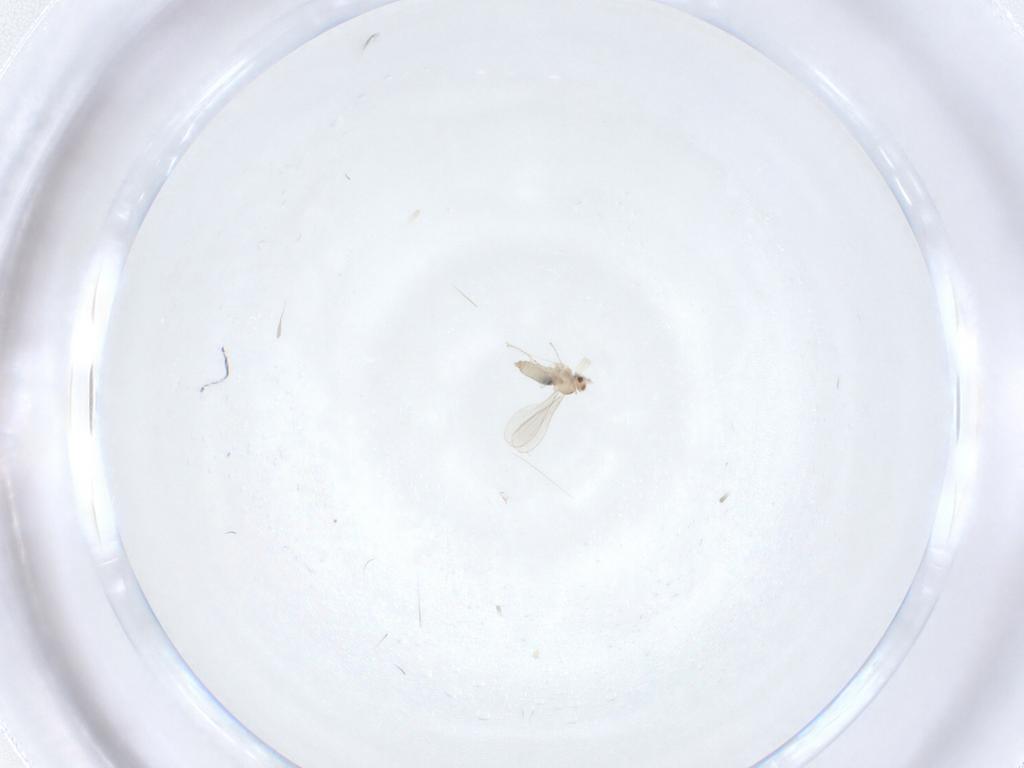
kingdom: Animalia
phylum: Arthropoda
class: Insecta
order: Diptera
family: Cecidomyiidae
